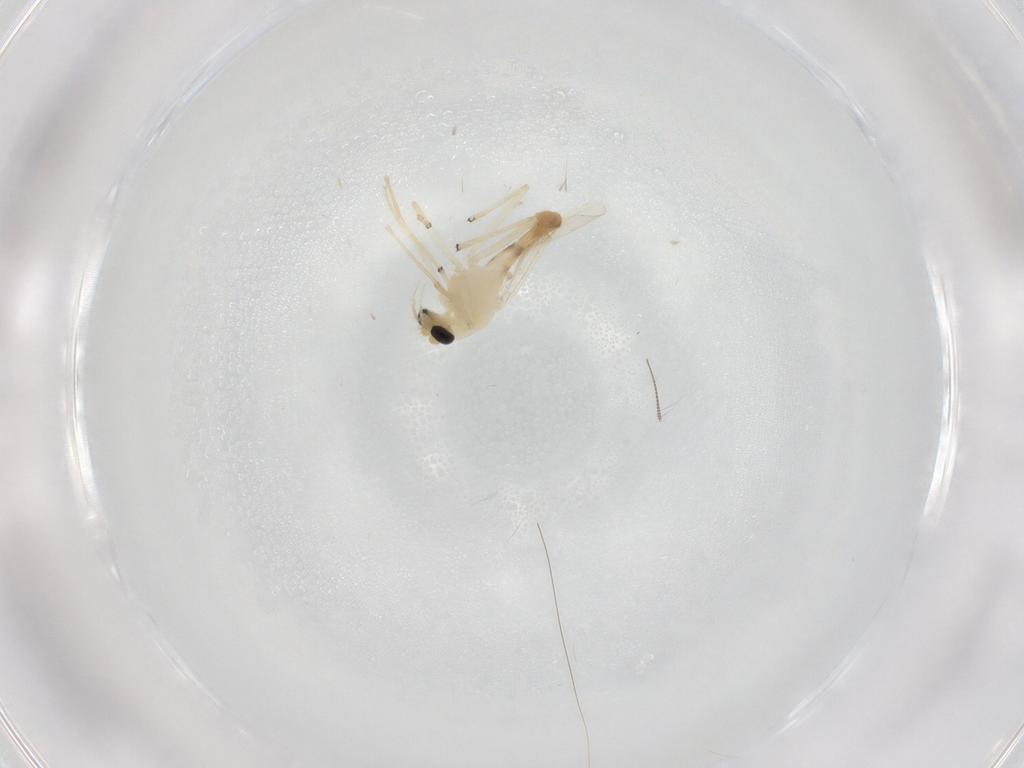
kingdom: Animalia
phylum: Arthropoda
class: Insecta
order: Diptera
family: Chironomidae
